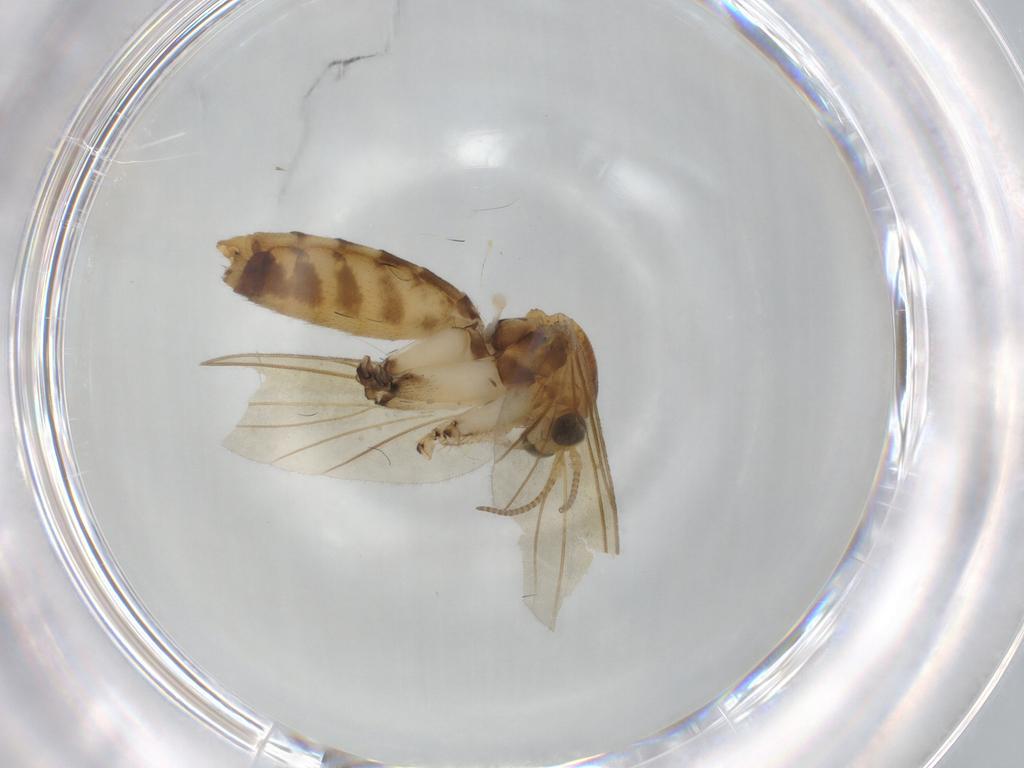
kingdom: Animalia
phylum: Arthropoda
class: Insecta
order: Diptera
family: Mycetophilidae
